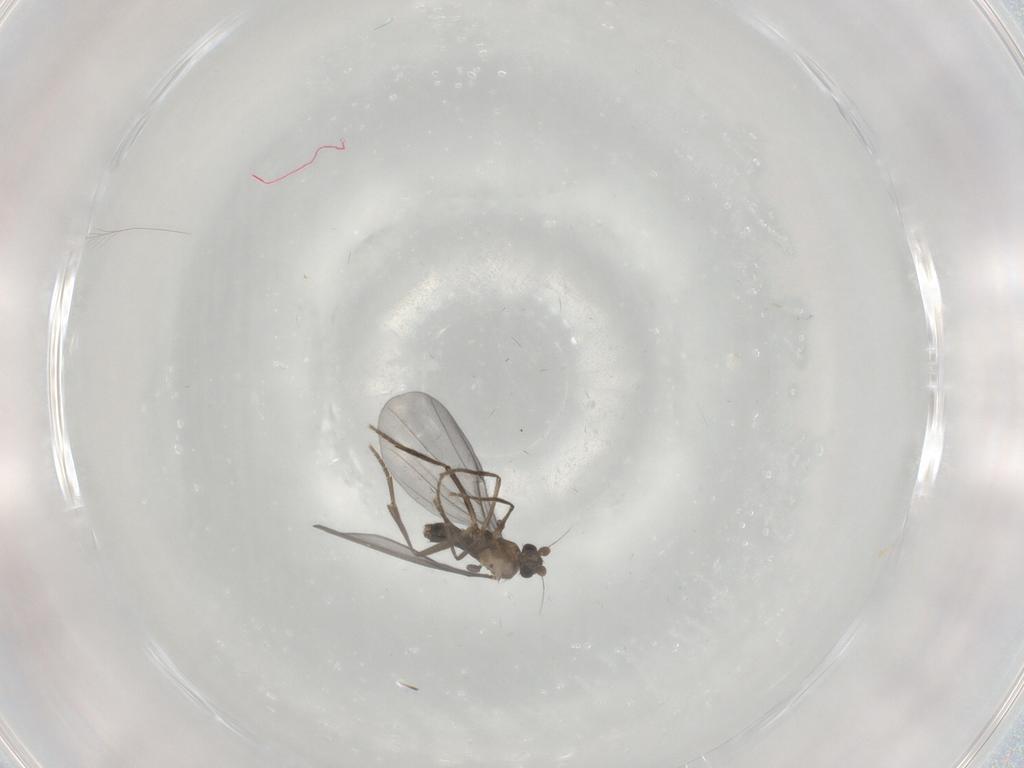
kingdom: Animalia
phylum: Arthropoda
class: Insecta
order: Diptera
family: Phoridae
